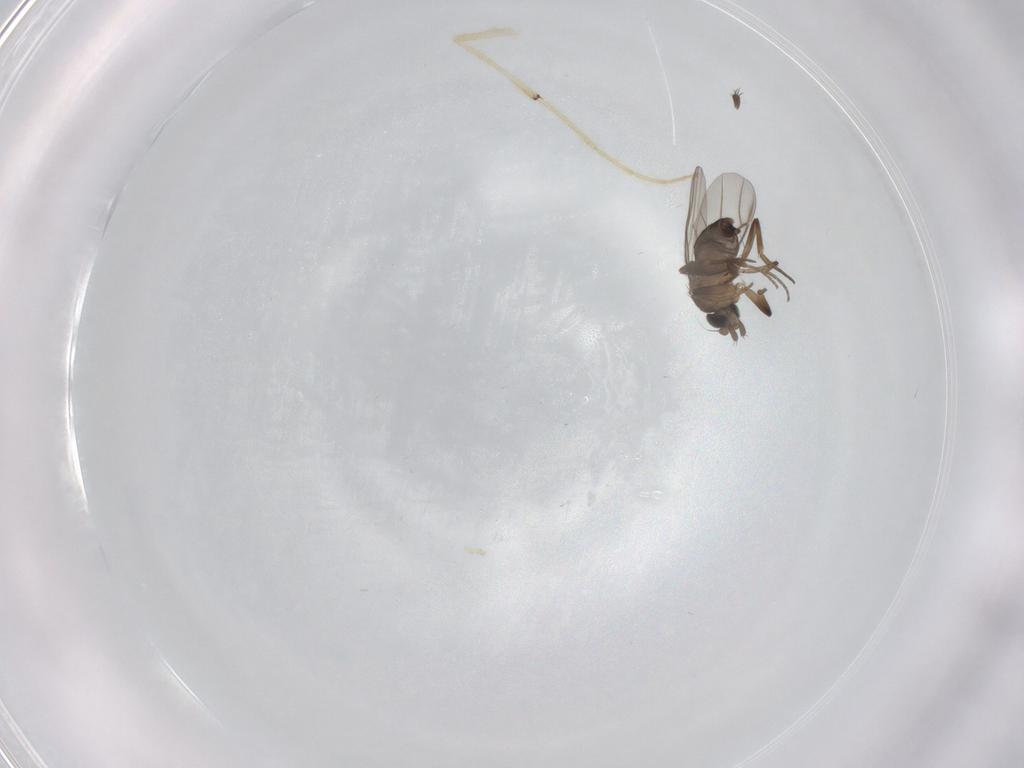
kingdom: Animalia
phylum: Arthropoda
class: Insecta
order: Diptera
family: Chironomidae
